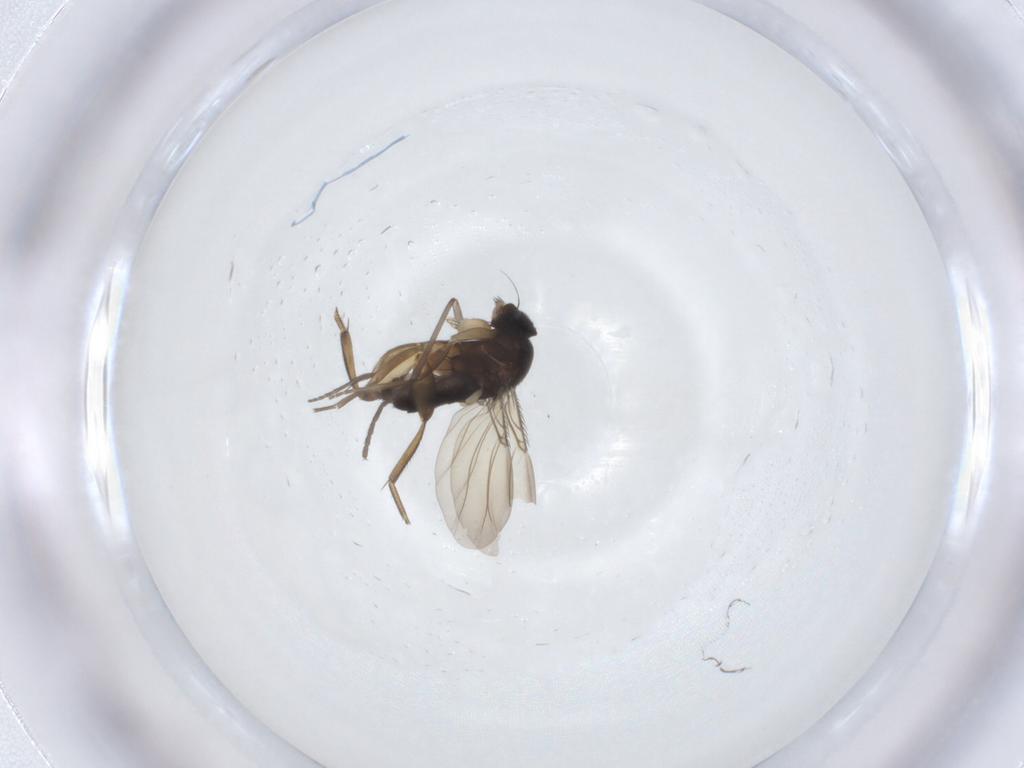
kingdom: Animalia
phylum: Arthropoda
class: Insecta
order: Diptera
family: Phoridae
